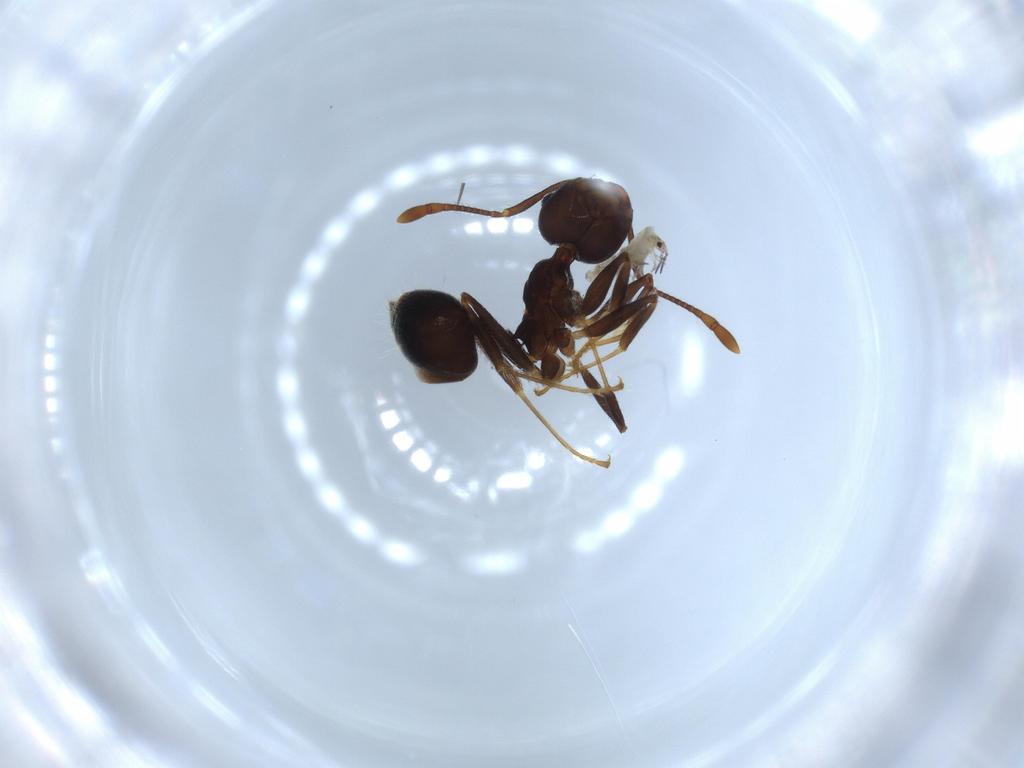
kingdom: Animalia
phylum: Arthropoda
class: Insecta
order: Hymenoptera
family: Formicidae
